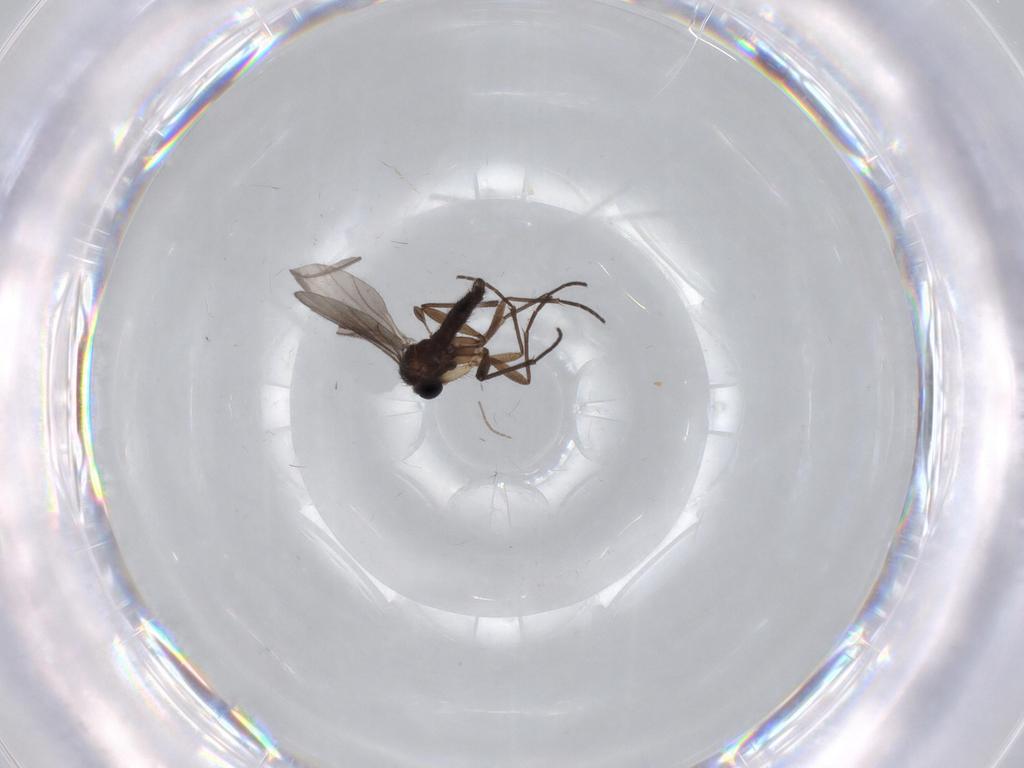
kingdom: Animalia
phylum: Arthropoda
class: Insecta
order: Diptera
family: Sciaridae
